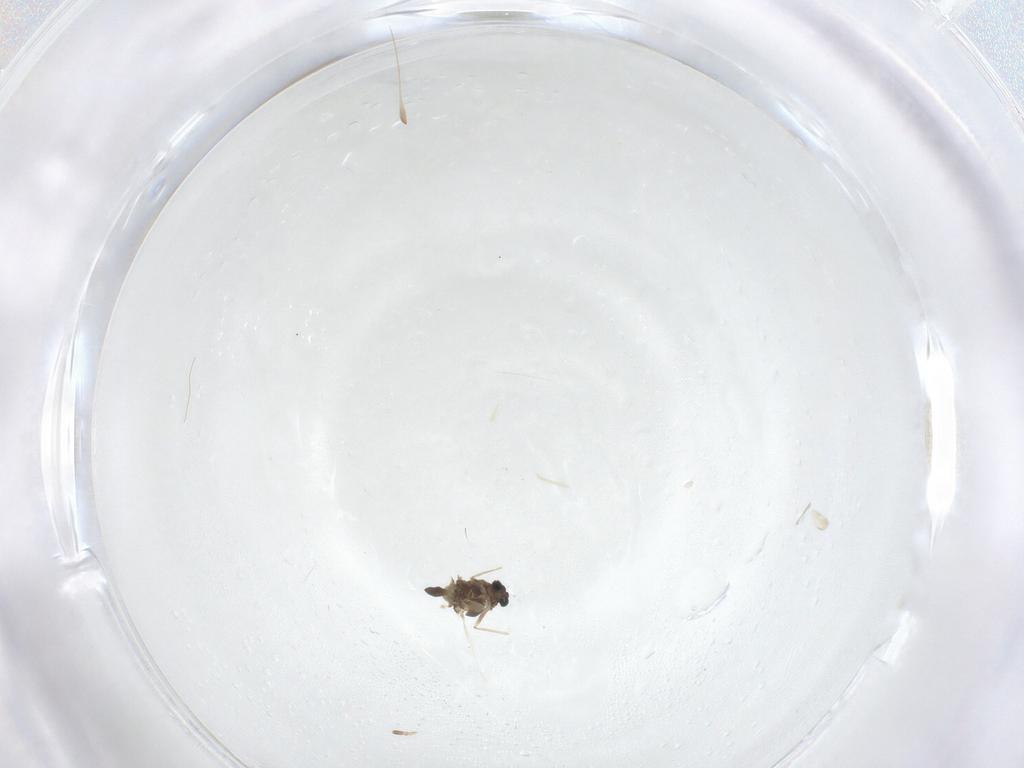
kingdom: Animalia
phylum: Arthropoda
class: Insecta
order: Diptera
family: Chironomidae
